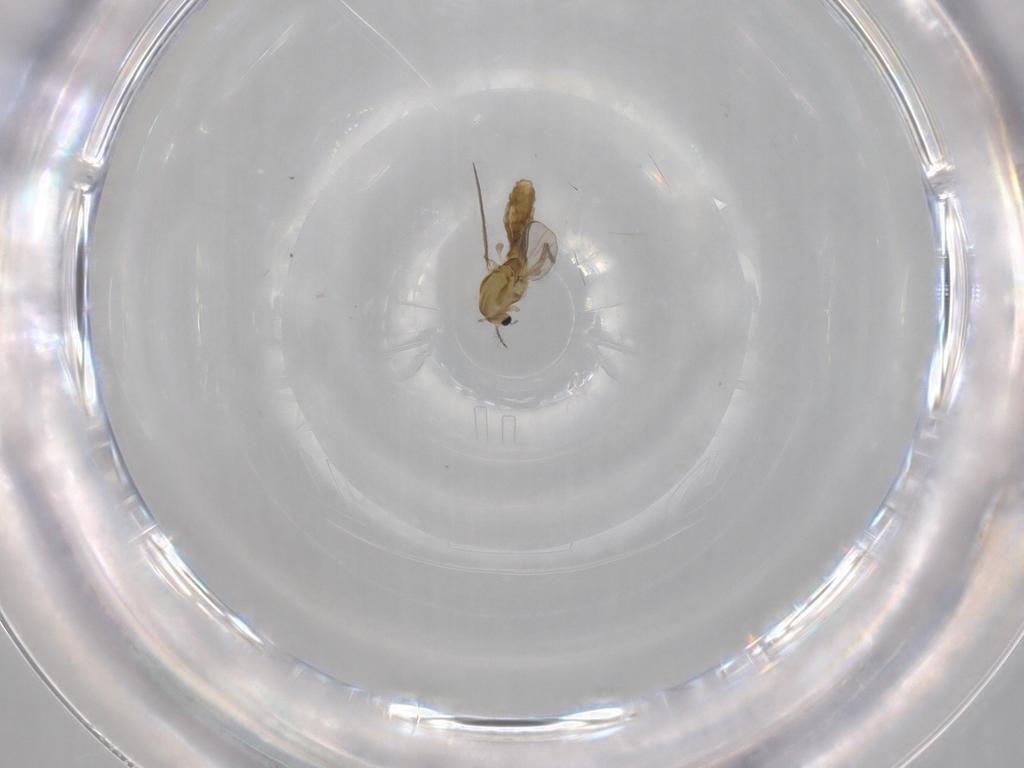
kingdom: Animalia
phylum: Arthropoda
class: Insecta
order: Diptera
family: Chironomidae
